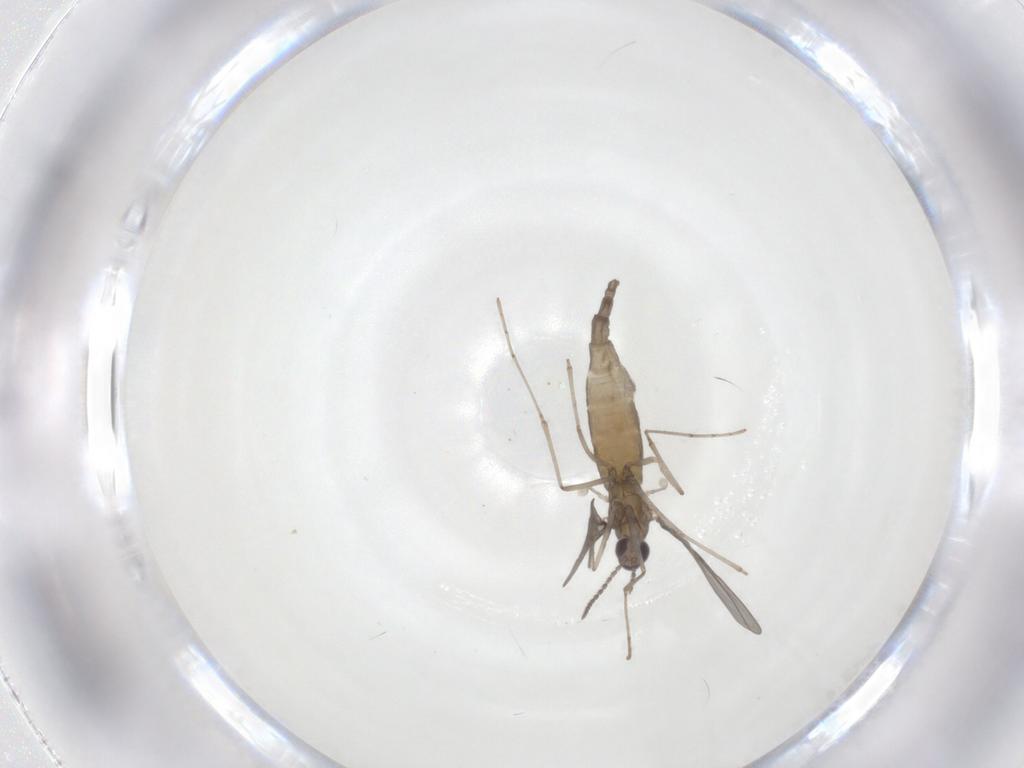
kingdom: Animalia
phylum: Arthropoda
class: Insecta
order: Diptera
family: Cecidomyiidae
